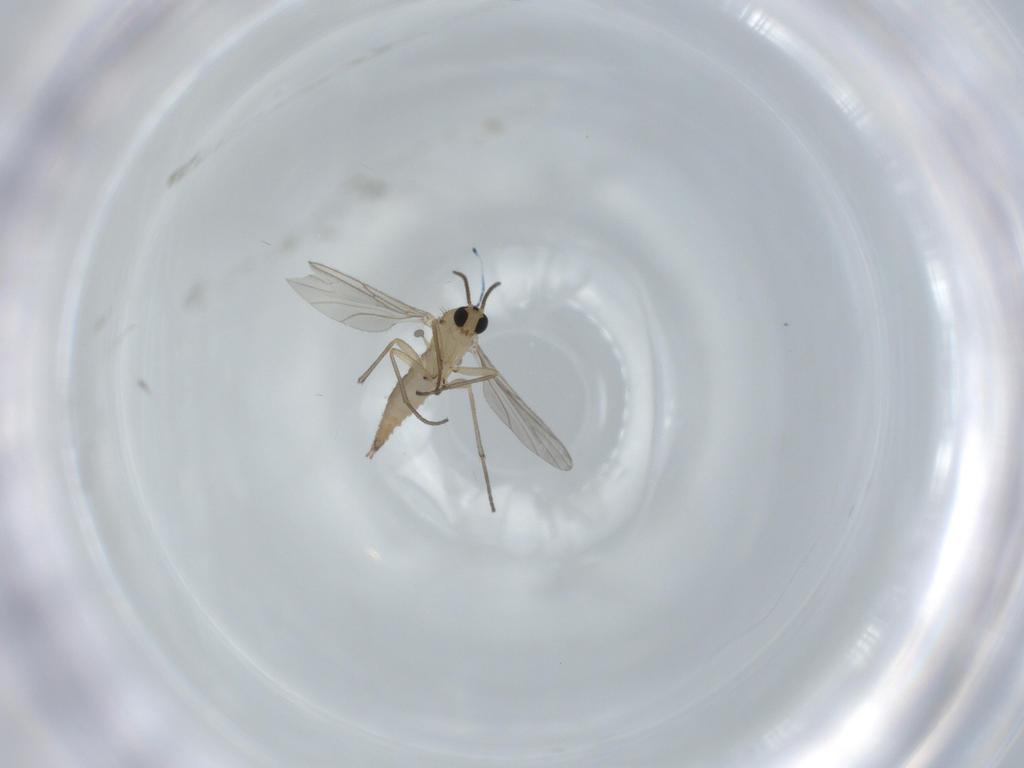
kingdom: Animalia
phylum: Arthropoda
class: Insecta
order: Diptera
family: Sciaridae
